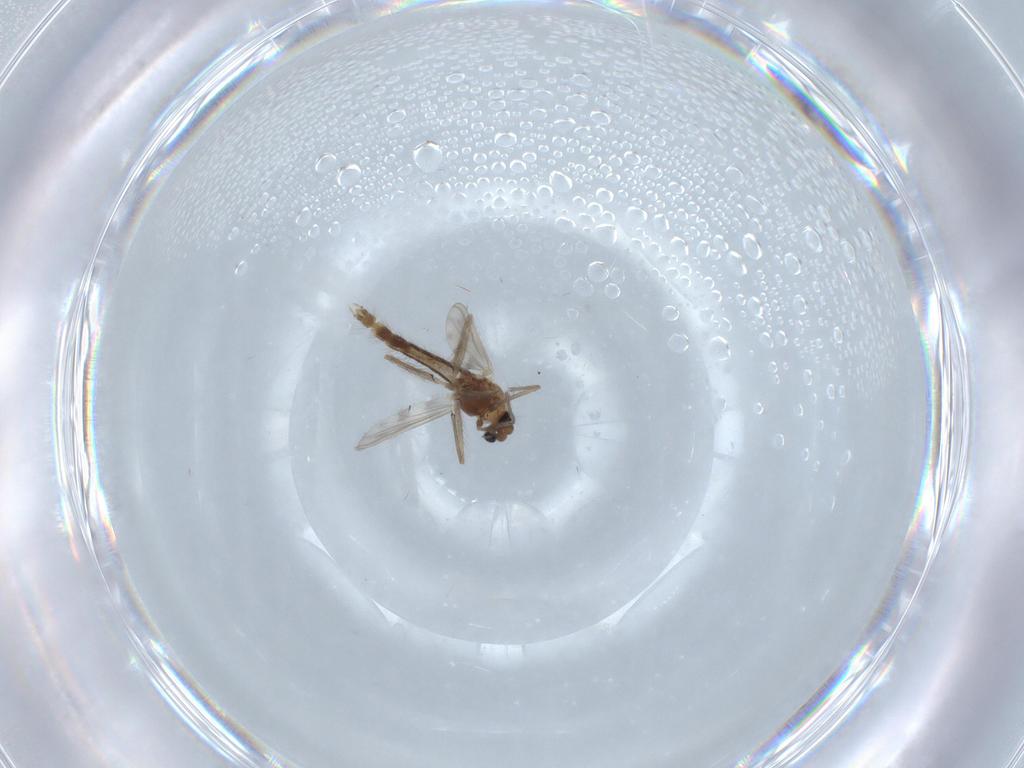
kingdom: Animalia
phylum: Arthropoda
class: Insecta
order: Diptera
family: Chironomidae
